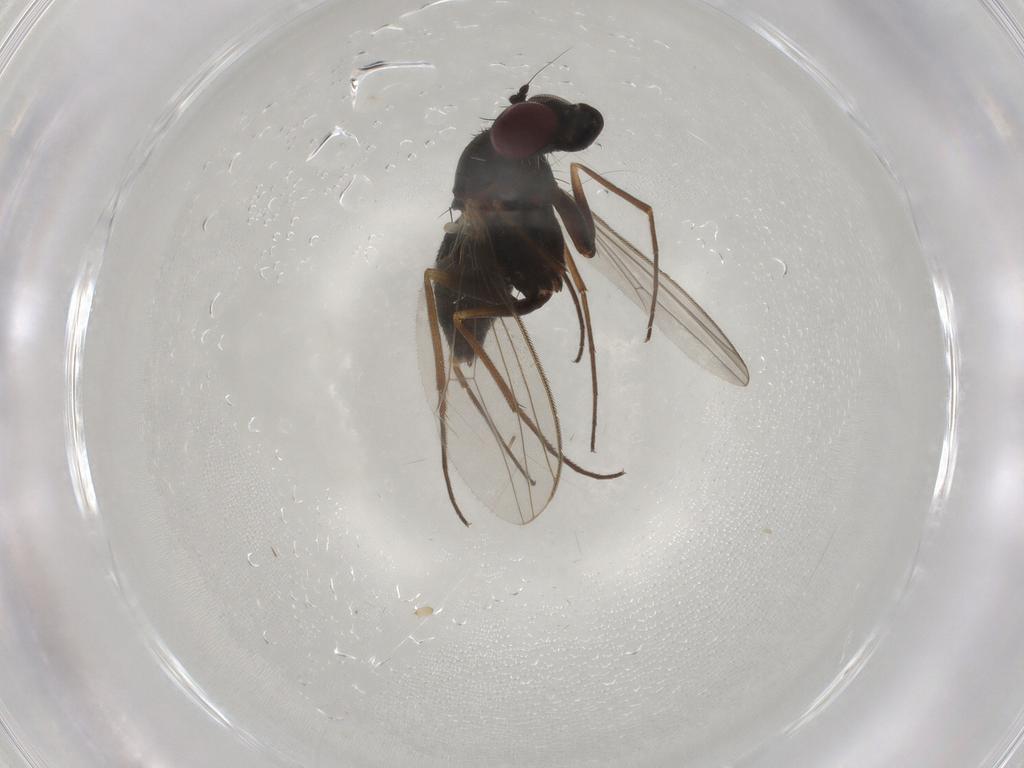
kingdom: Animalia
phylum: Arthropoda
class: Insecta
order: Diptera
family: Dolichopodidae
